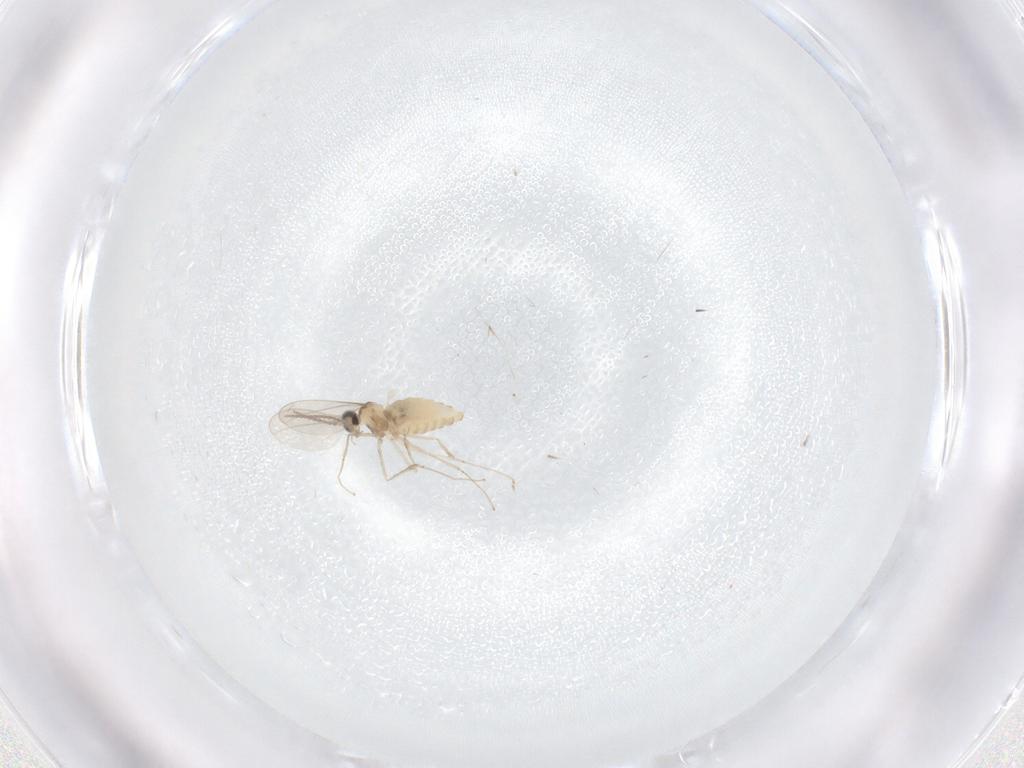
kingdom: Animalia
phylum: Arthropoda
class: Insecta
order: Diptera
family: Cecidomyiidae
